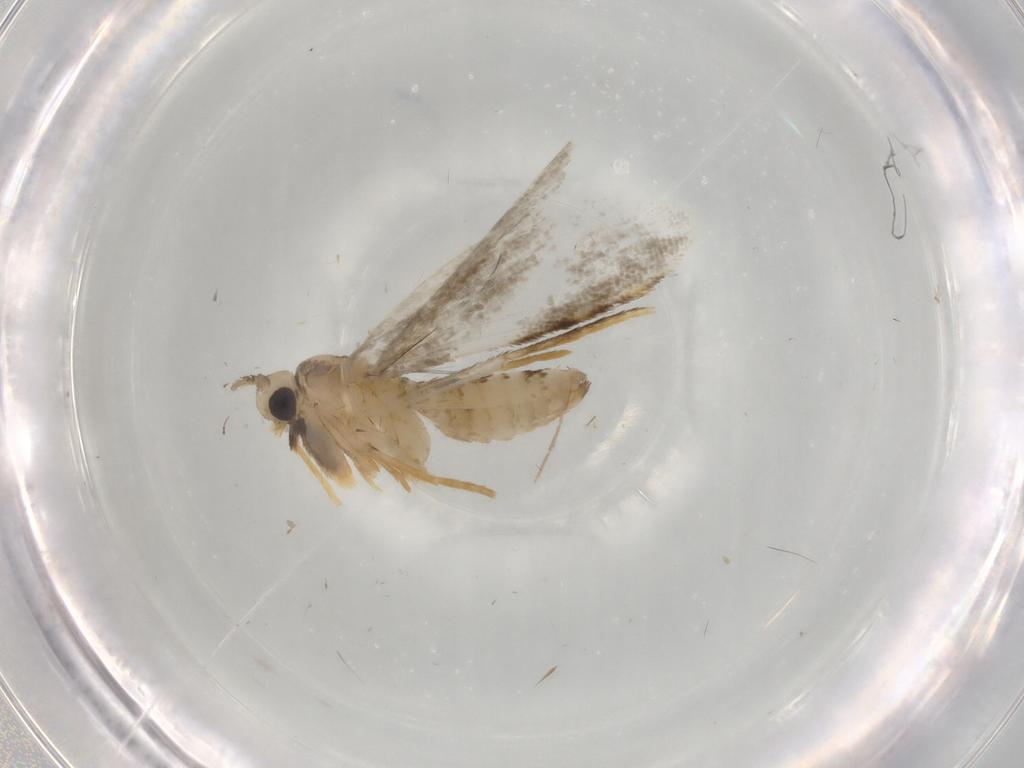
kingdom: Animalia
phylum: Arthropoda
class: Insecta
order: Lepidoptera
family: Psychidae
